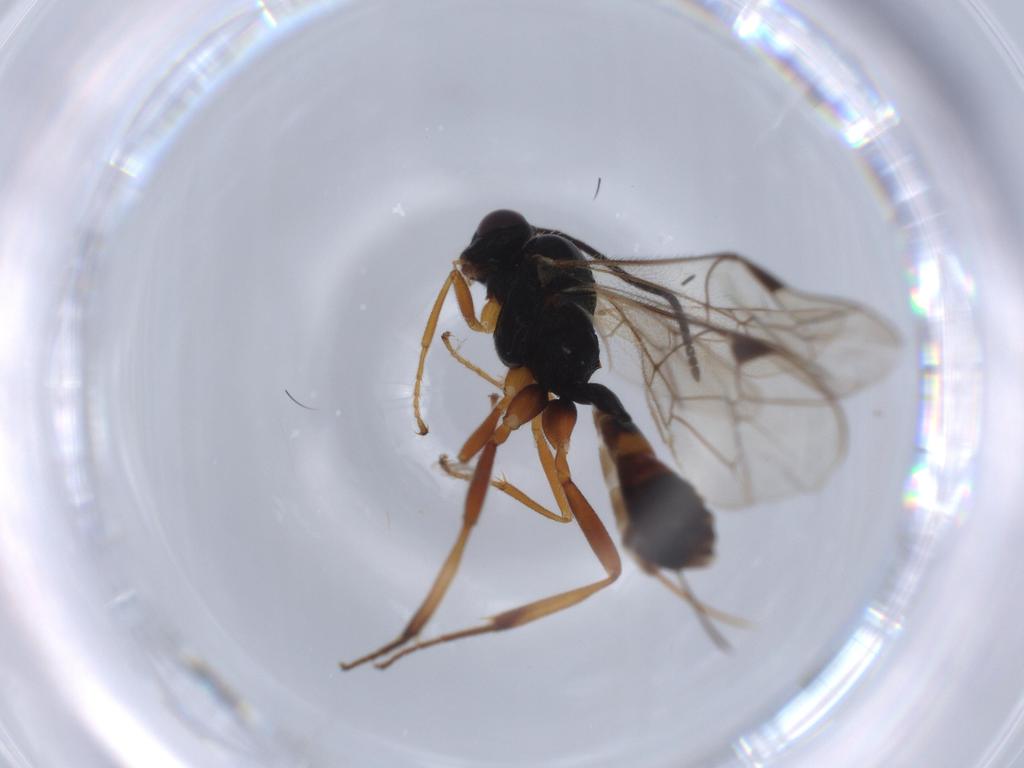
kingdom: Animalia
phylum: Arthropoda
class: Insecta
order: Hymenoptera
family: Ichneumonidae
